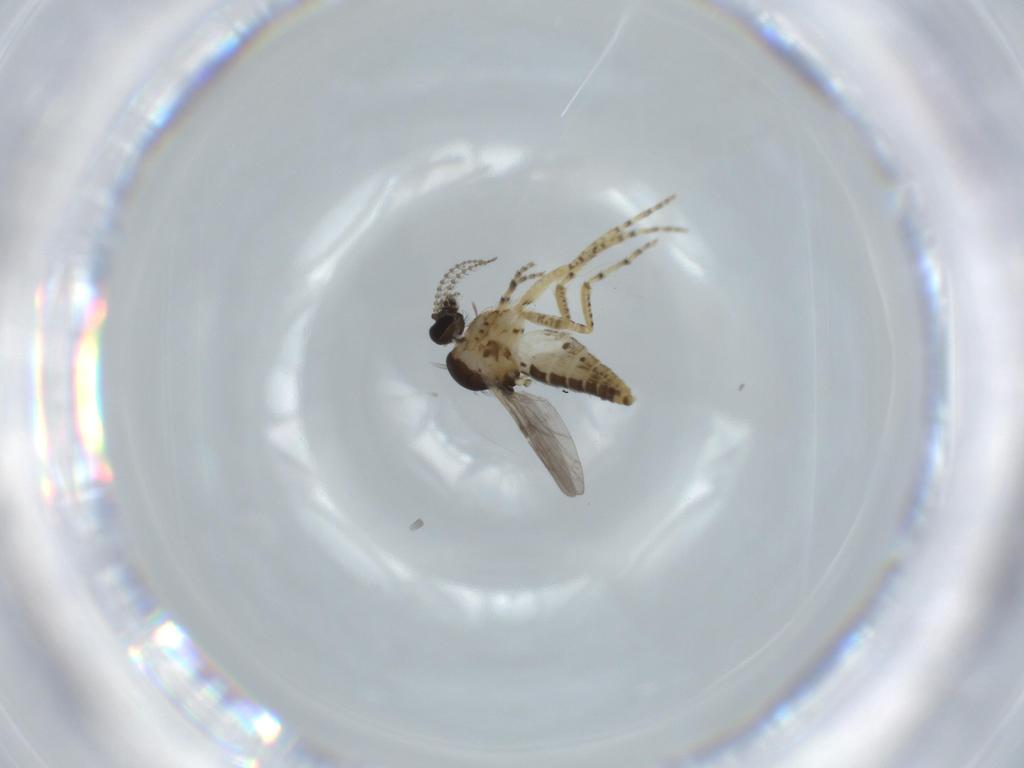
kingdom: Animalia
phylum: Arthropoda
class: Insecta
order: Diptera
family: Ceratopogonidae
